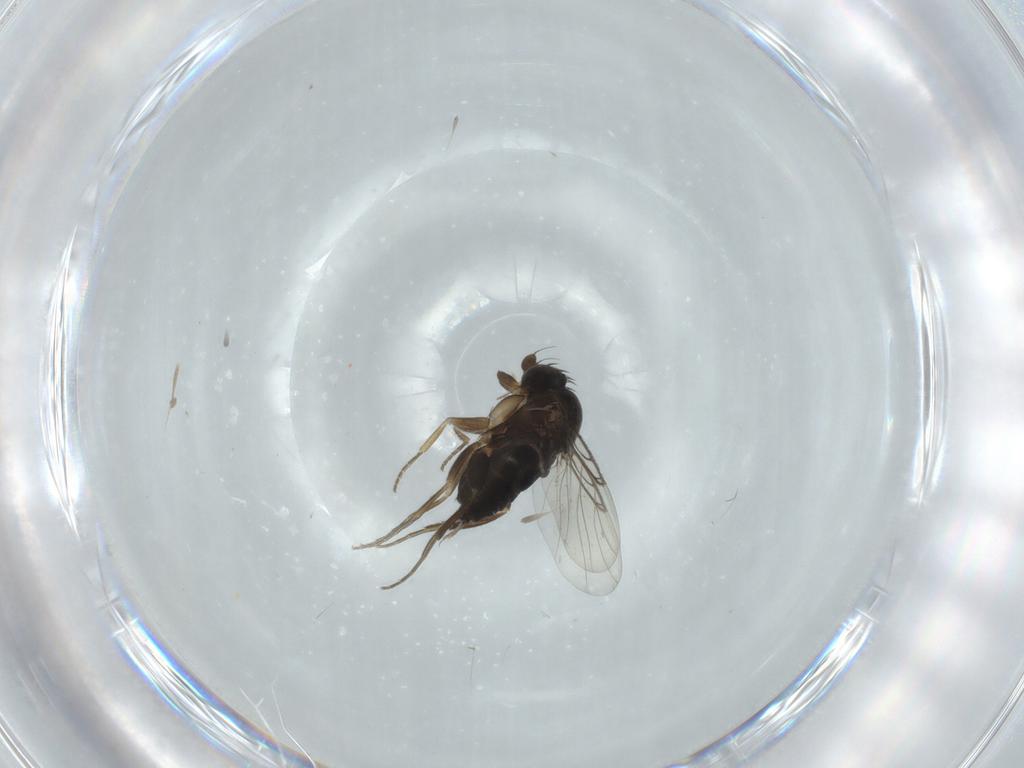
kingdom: Animalia
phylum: Arthropoda
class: Insecta
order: Diptera
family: Phoridae
